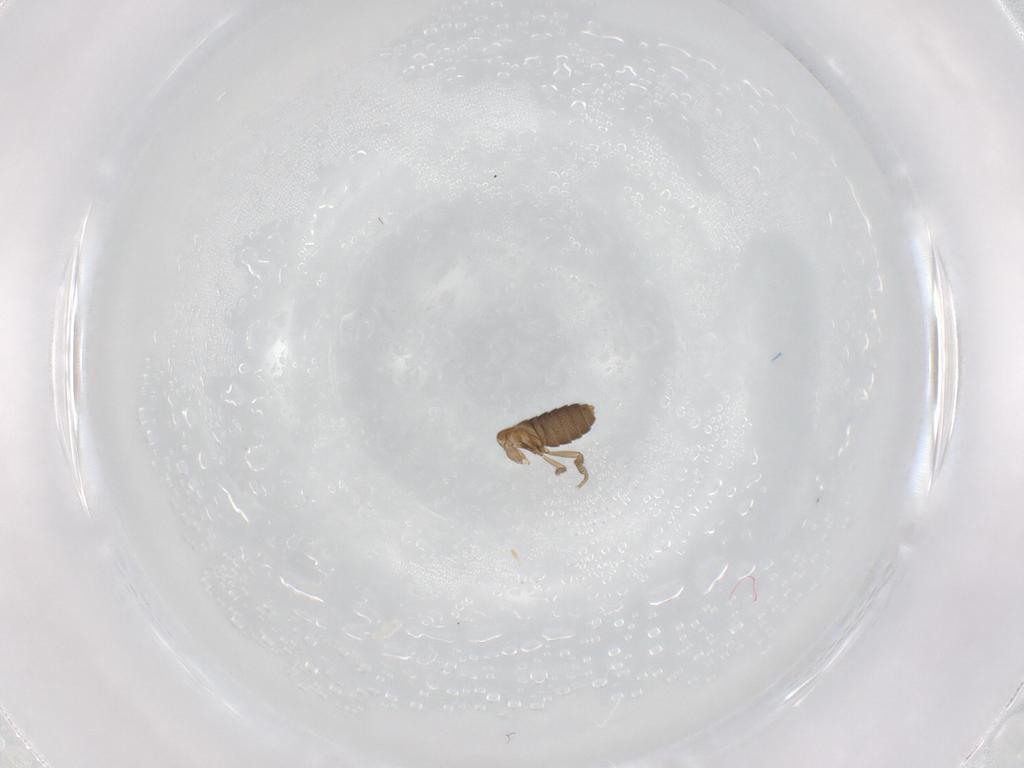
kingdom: Animalia
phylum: Arthropoda
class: Insecta
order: Diptera
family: Phoridae
